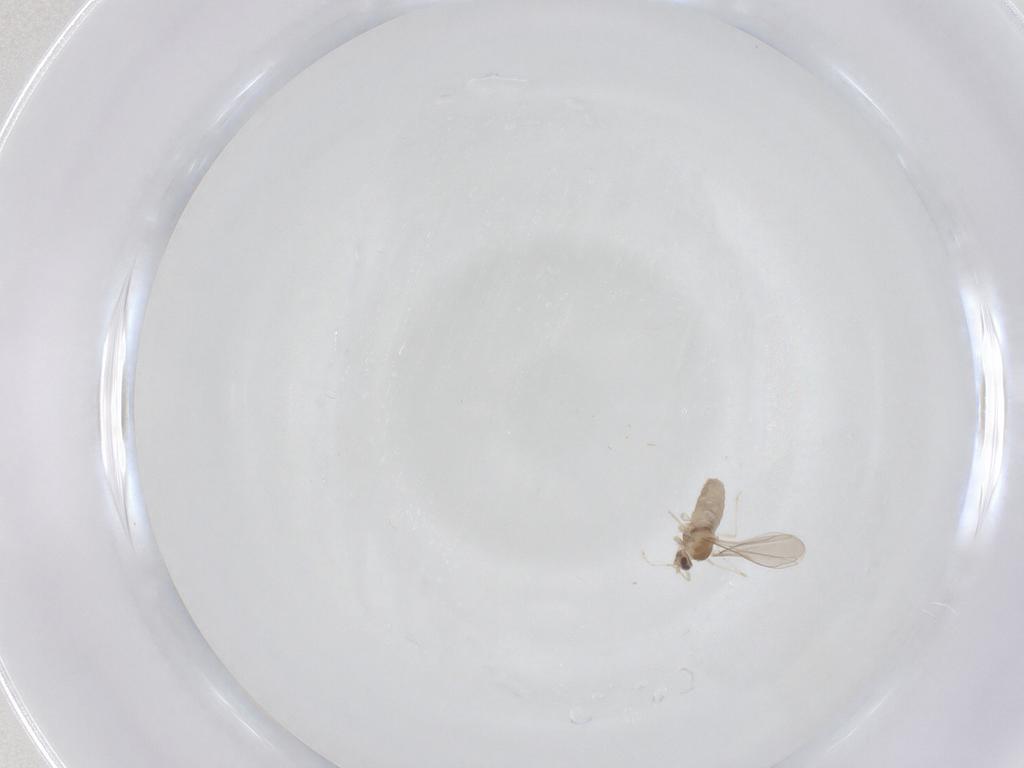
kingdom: Animalia
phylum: Arthropoda
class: Insecta
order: Diptera
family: Cecidomyiidae
